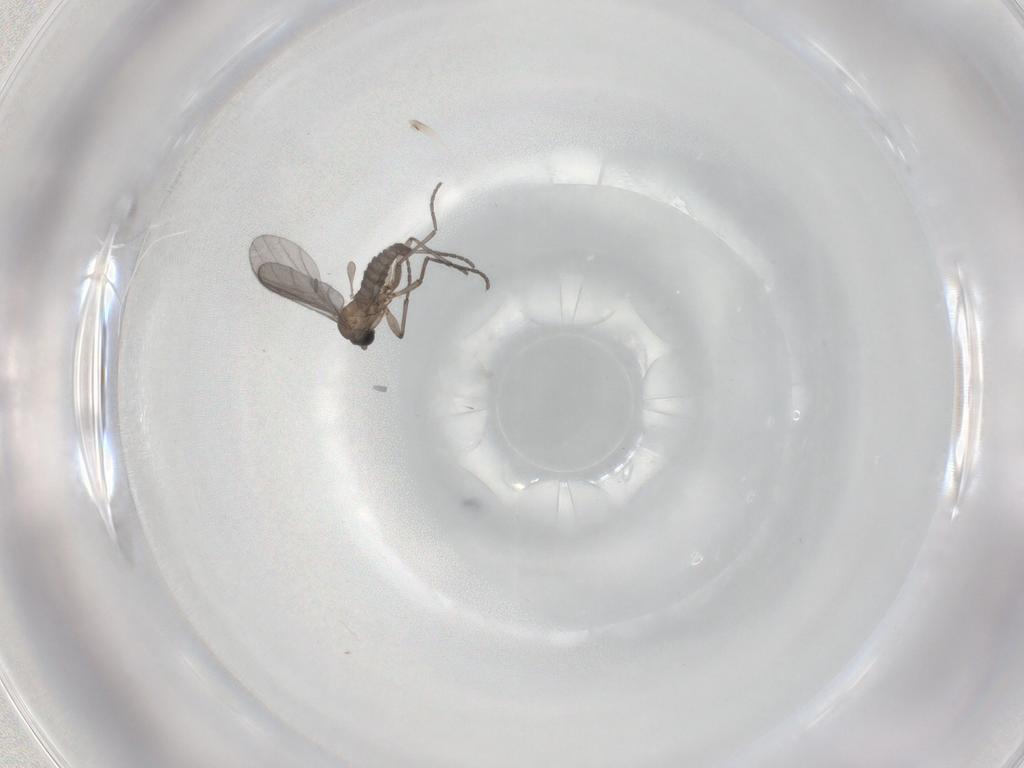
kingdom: Animalia
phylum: Arthropoda
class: Insecta
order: Diptera
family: Sciaridae
